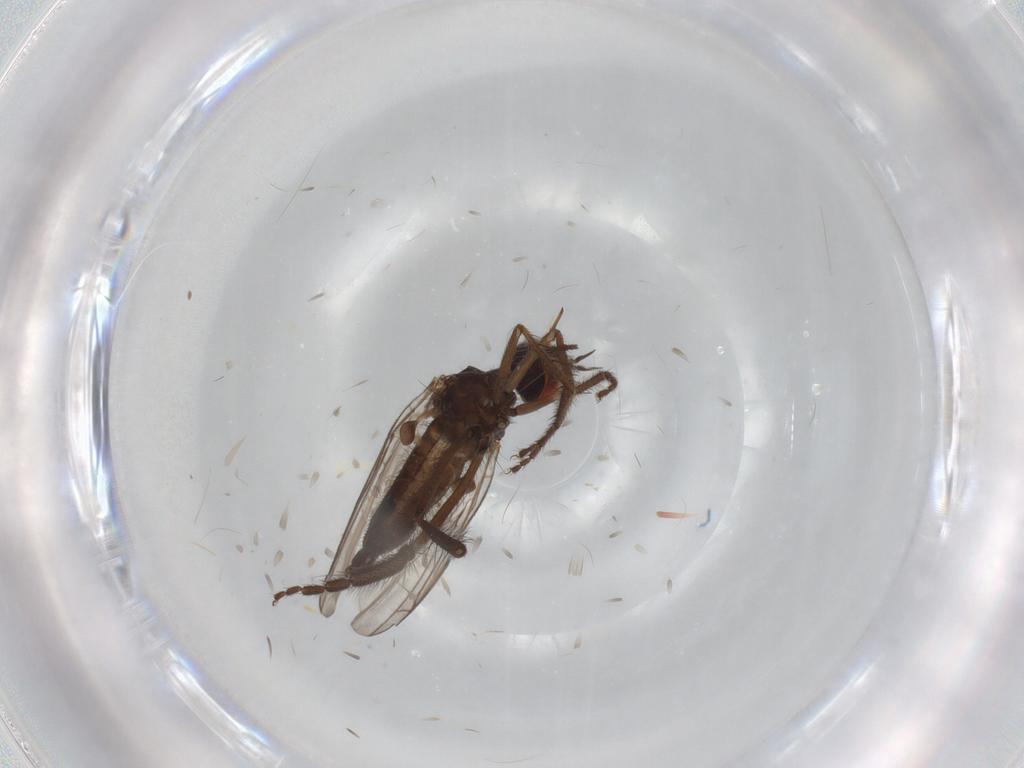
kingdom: Animalia
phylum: Arthropoda
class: Insecta
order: Diptera
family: Empididae
